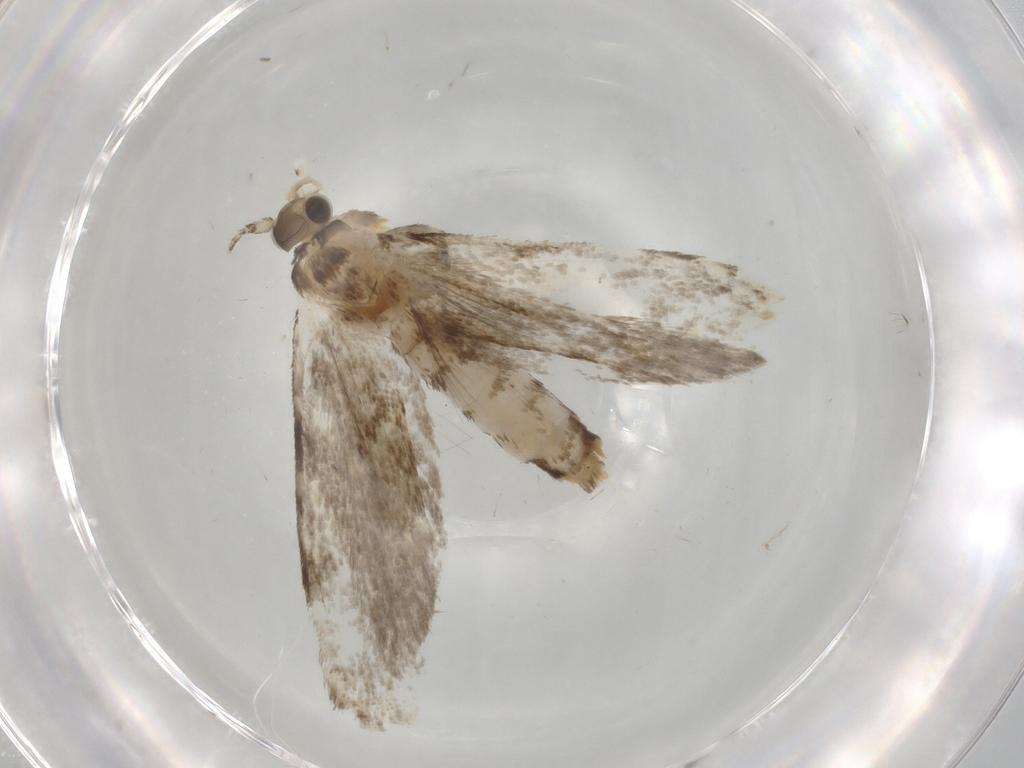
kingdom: Animalia
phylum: Arthropoda
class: Insecta
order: Lepidoptera
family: Tineidae
